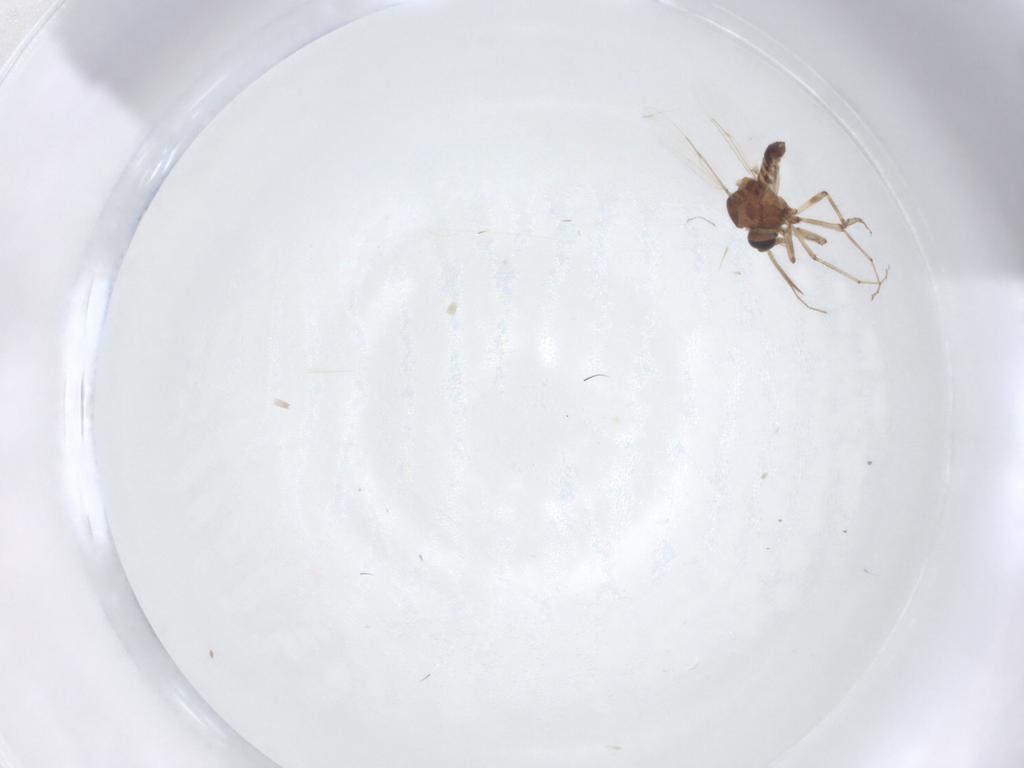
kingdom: Animalia
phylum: Arthropoda
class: Insecta
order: Diptera
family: Ceratopogonidae
